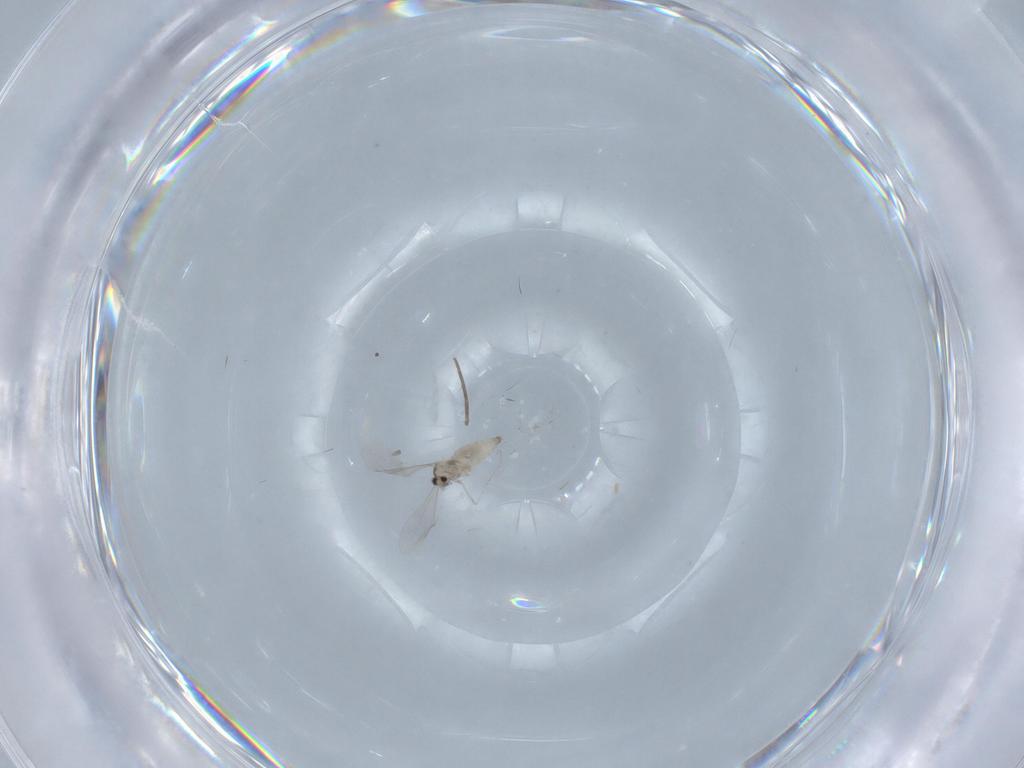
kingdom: Animalia
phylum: Arthropoda
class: Insecta
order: Diptera
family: Cecidomyiidae
